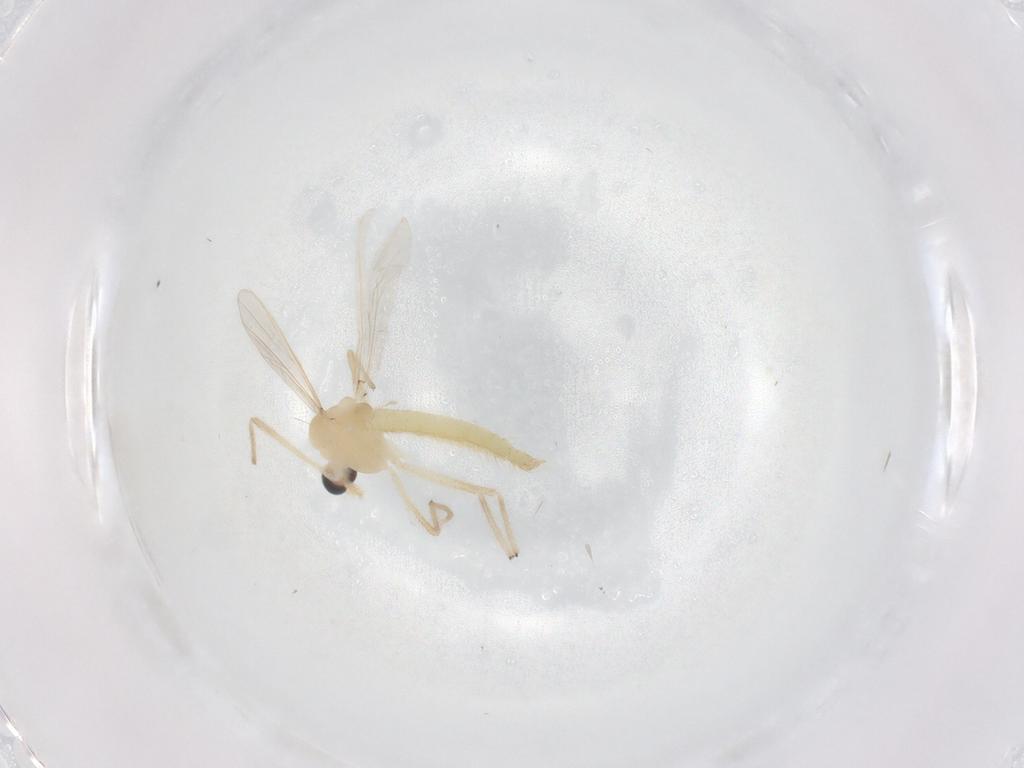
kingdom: Animalia
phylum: Arthropoda
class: Insecta
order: Diptera
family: Chironomidae
